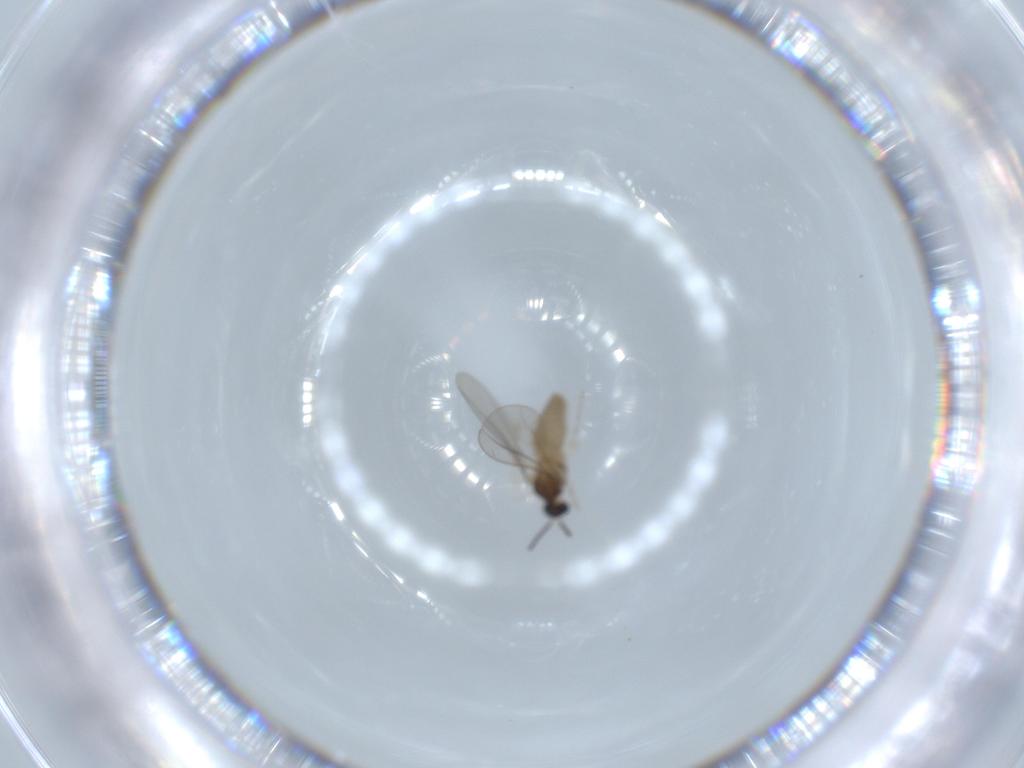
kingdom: Animalia
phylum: Arthropoda
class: Insecta
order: Diptera
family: Cecidomyiidae
